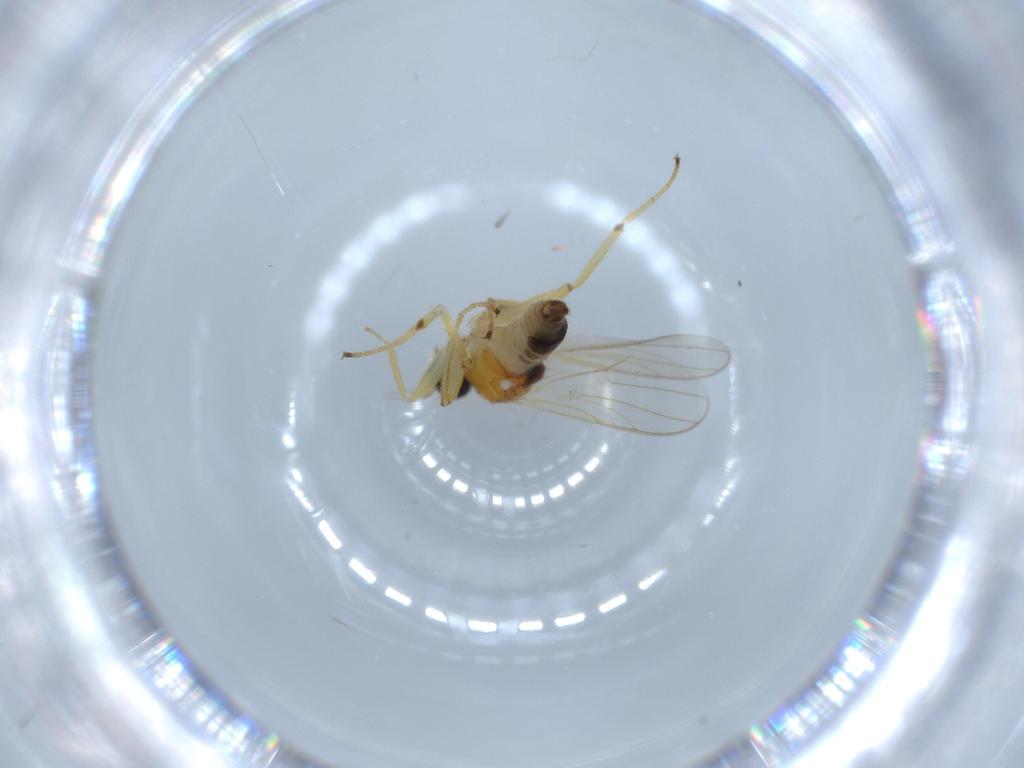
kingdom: Animalia
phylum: Arthropoda
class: Insecta
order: Diptera
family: Hybotidae
